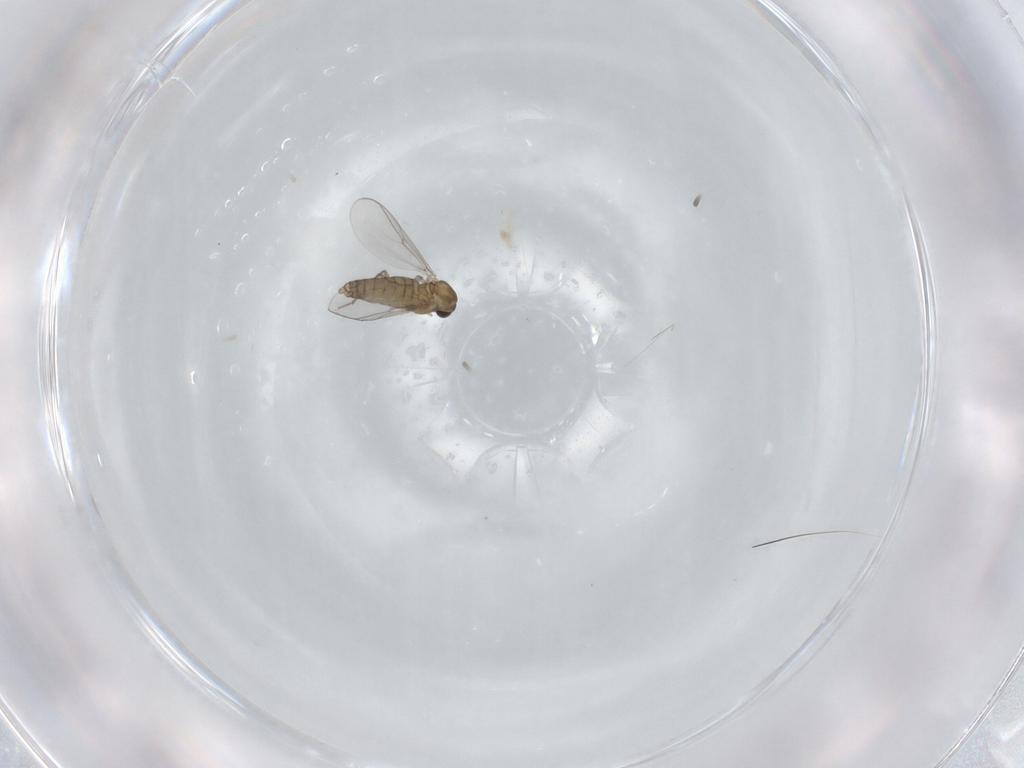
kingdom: Animalia
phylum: Arthropoda
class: Insecta
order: Diptera
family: Chironomidae
